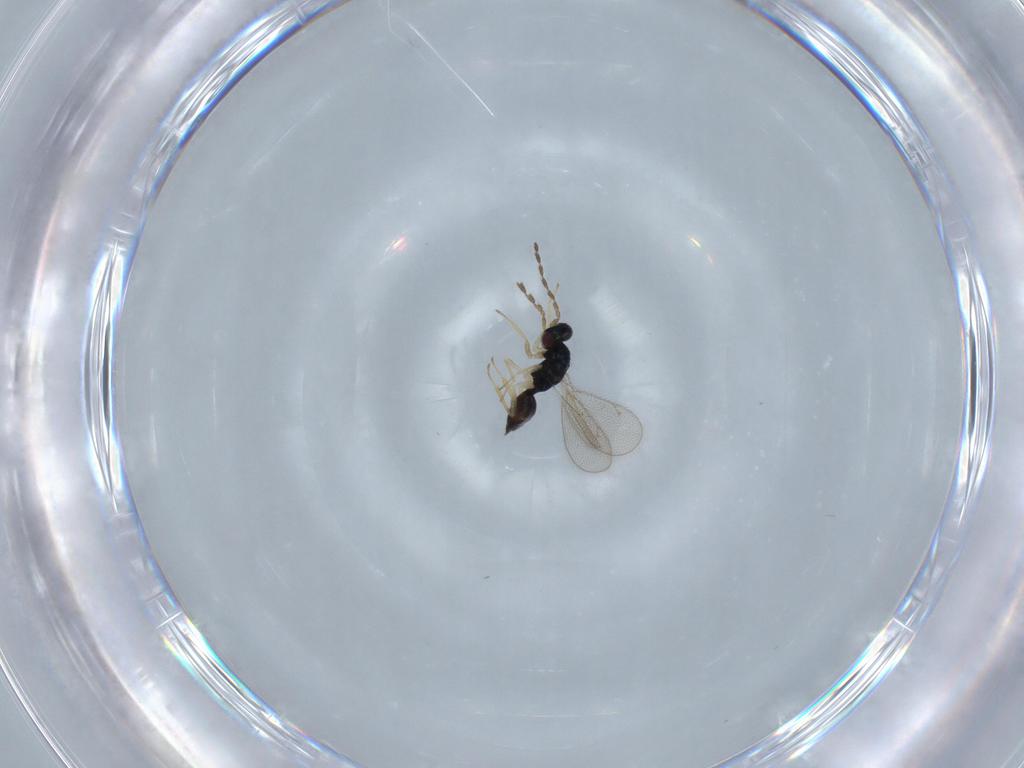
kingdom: Animalia
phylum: Arthropoda
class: Insecta
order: Hymenoptera
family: Eulophidae
